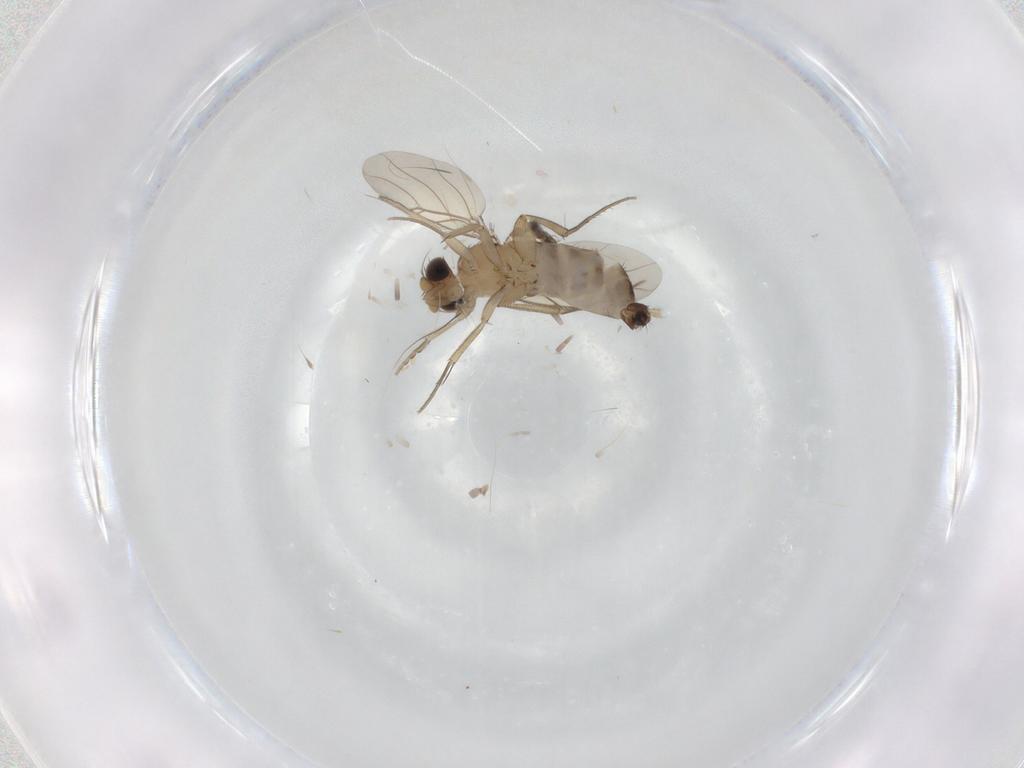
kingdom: Animalia
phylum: Arthropoda
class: Insecta
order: Diptera
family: Phoridae
